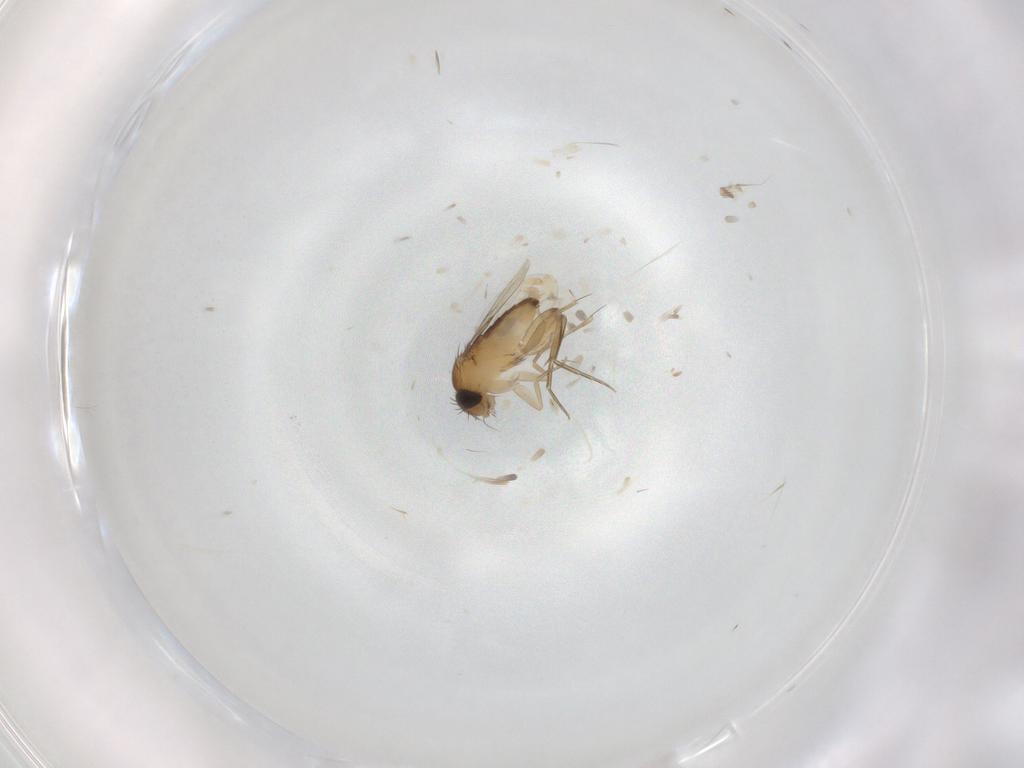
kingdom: Animalia
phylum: Arthropoda
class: Insecta
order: Diptera
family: Phoridae
